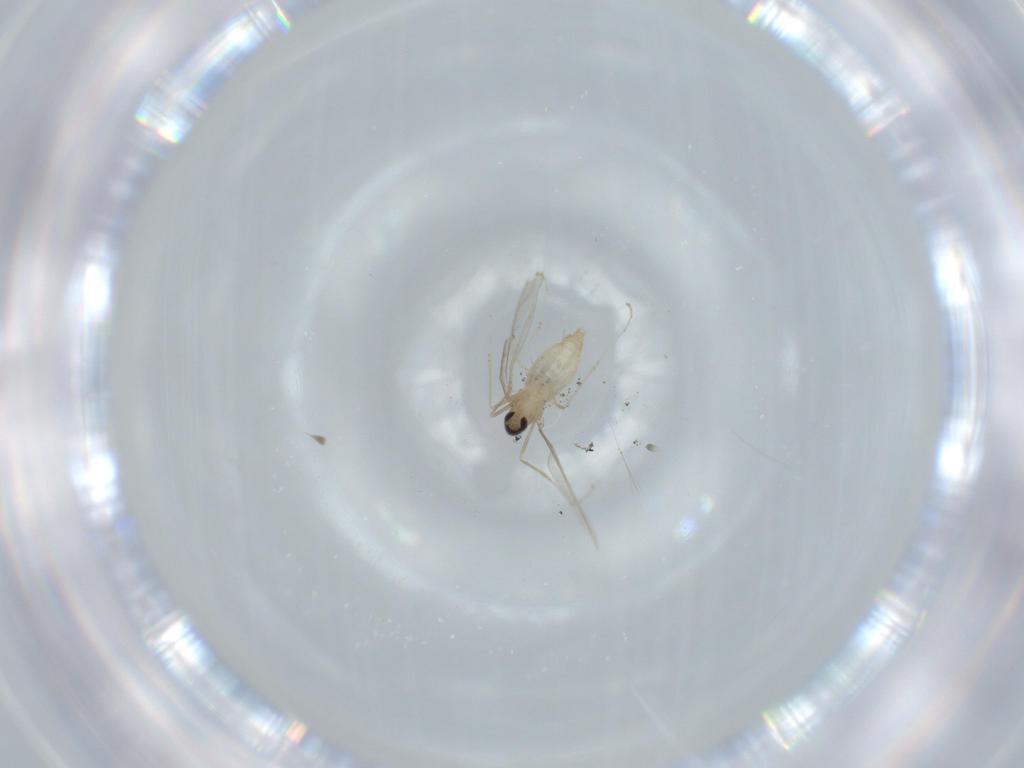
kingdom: Animalia
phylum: Arthropoda
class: Insecta
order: Diptera
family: Cecidomyiidae
